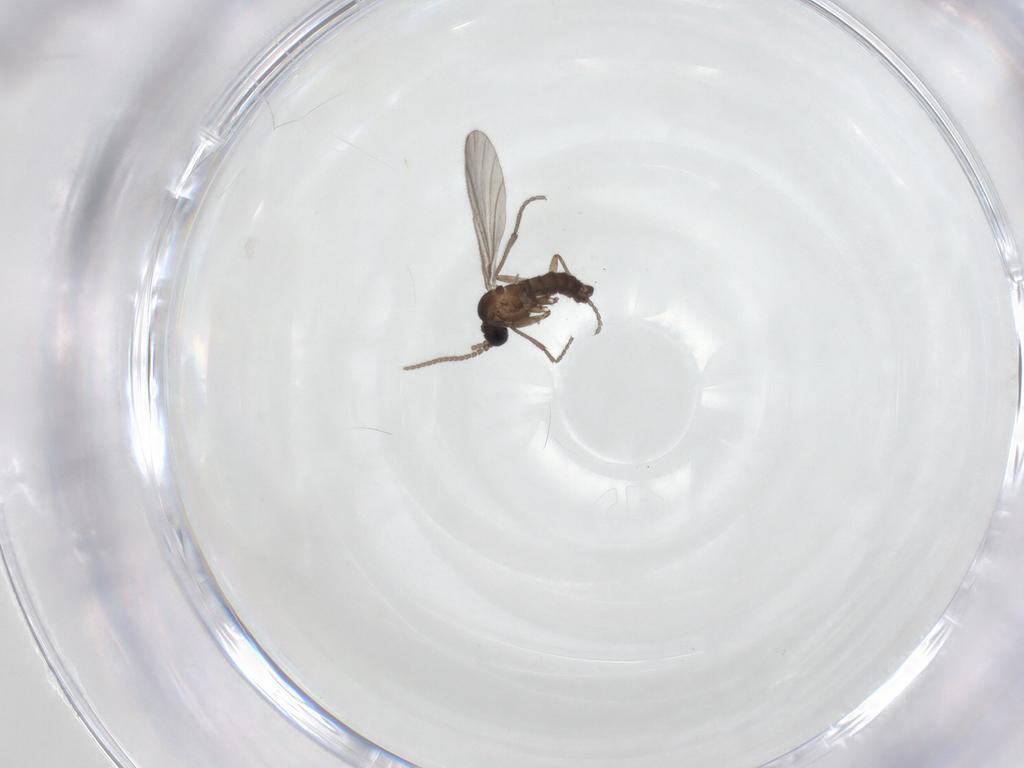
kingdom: Animalia
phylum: Arthropoda
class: Insecta
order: Diptera
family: Sciaridae
